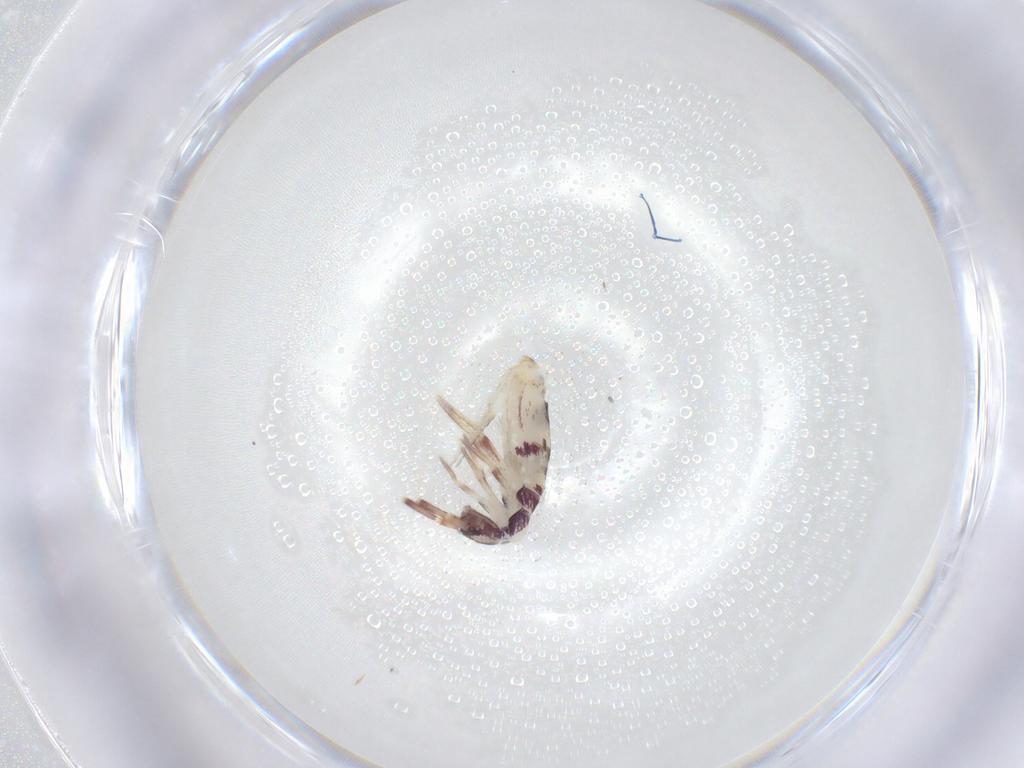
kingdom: Animalia
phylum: Arthropoda
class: Collembola
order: Entomobryomorpha
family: Entomobryidae
